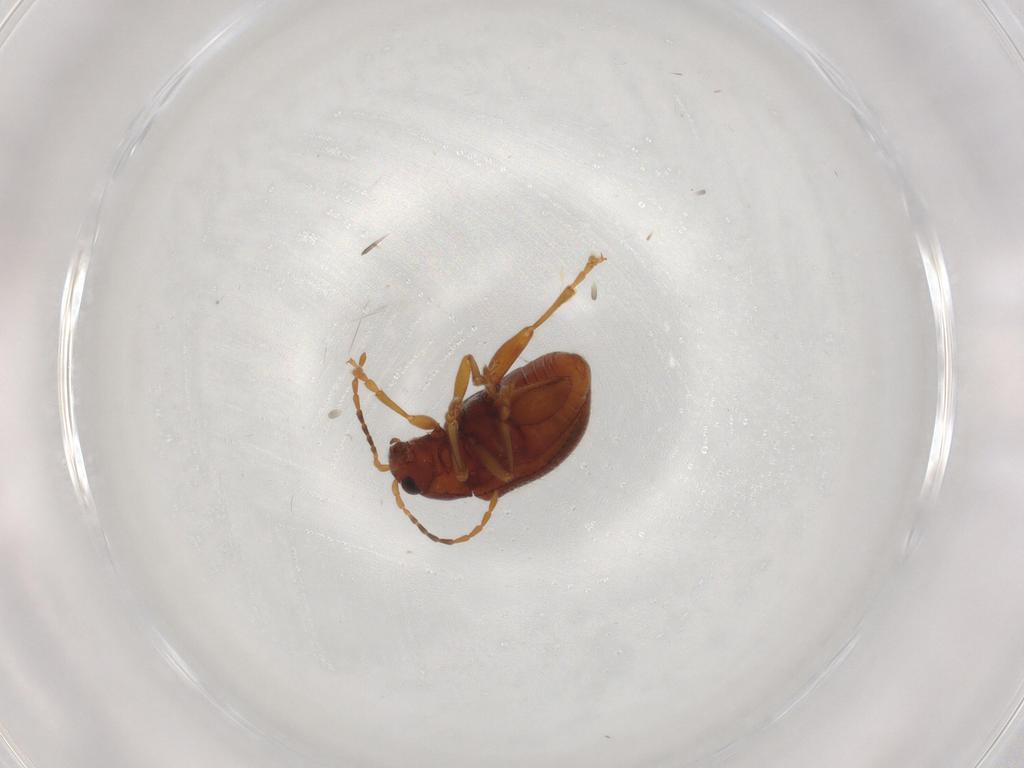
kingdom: Animalia
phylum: Arthropoda
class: Insecta
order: Coleoptera
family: Chrysomelidae
